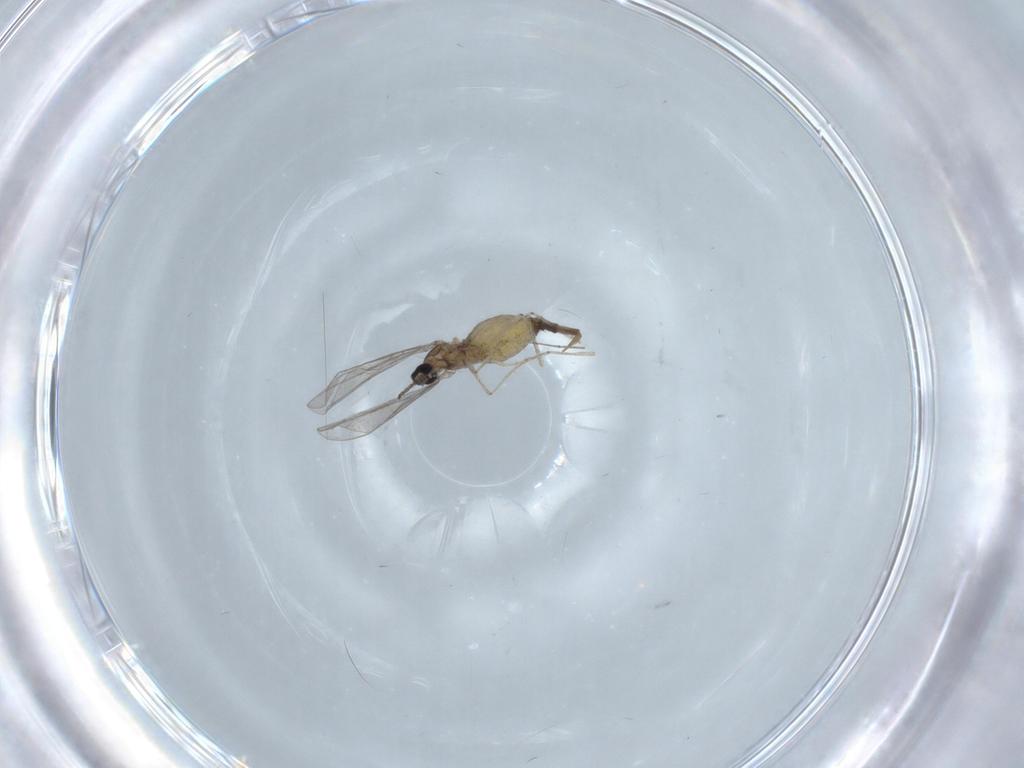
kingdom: Animalia
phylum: Arthropoda
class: Insecta
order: Diptera
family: Cecidomyiidae
